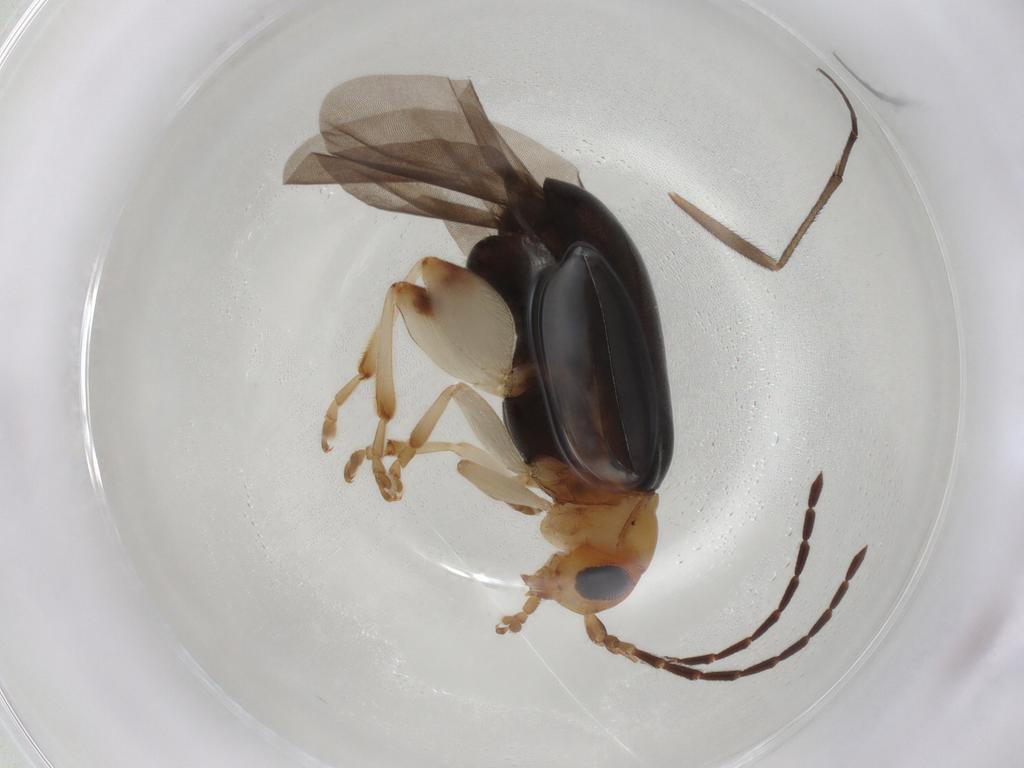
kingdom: Animalia
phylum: Arthropoda
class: Insecta
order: Coleoptera
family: Chrysomelidae
